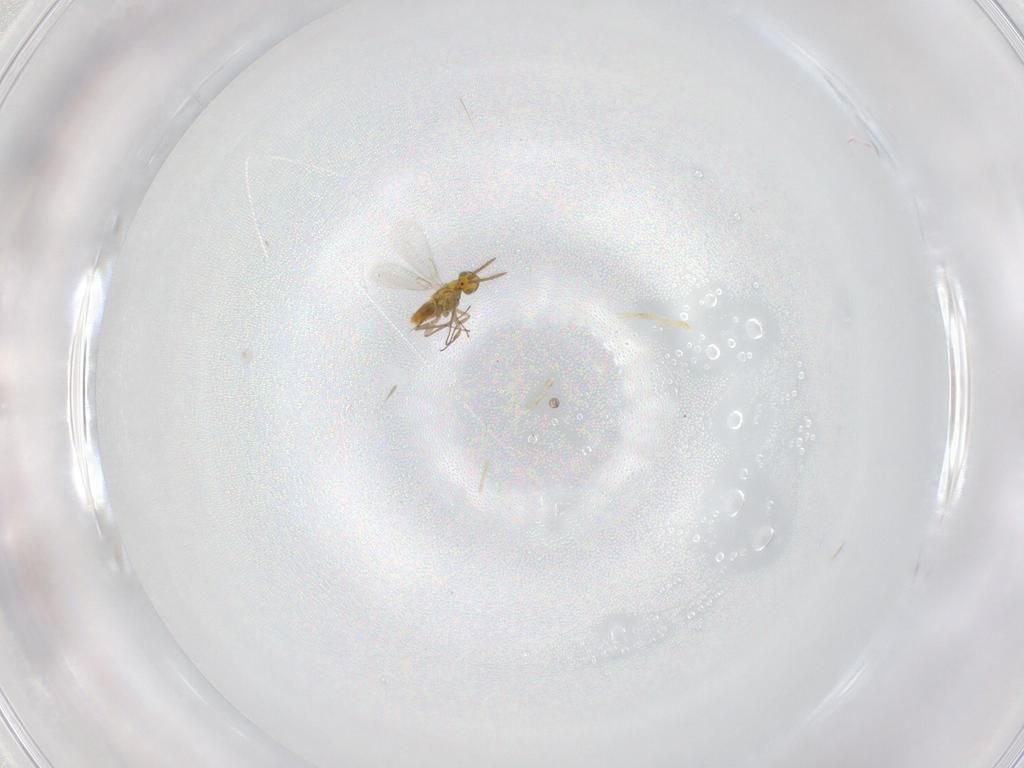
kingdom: Animalia
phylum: Arthropoda
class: Insecta
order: Hymenoptera
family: Aphelinidae
